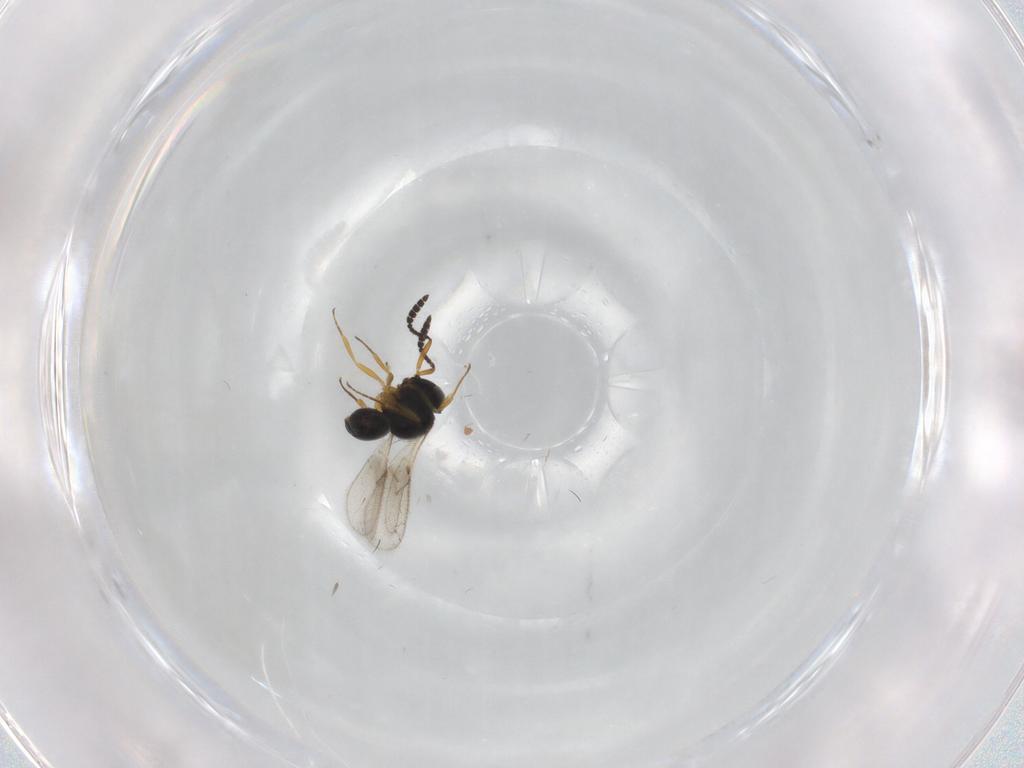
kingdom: Animalia
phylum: Arthropoda
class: Insecta
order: Hymenoptera
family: Scelionidae
